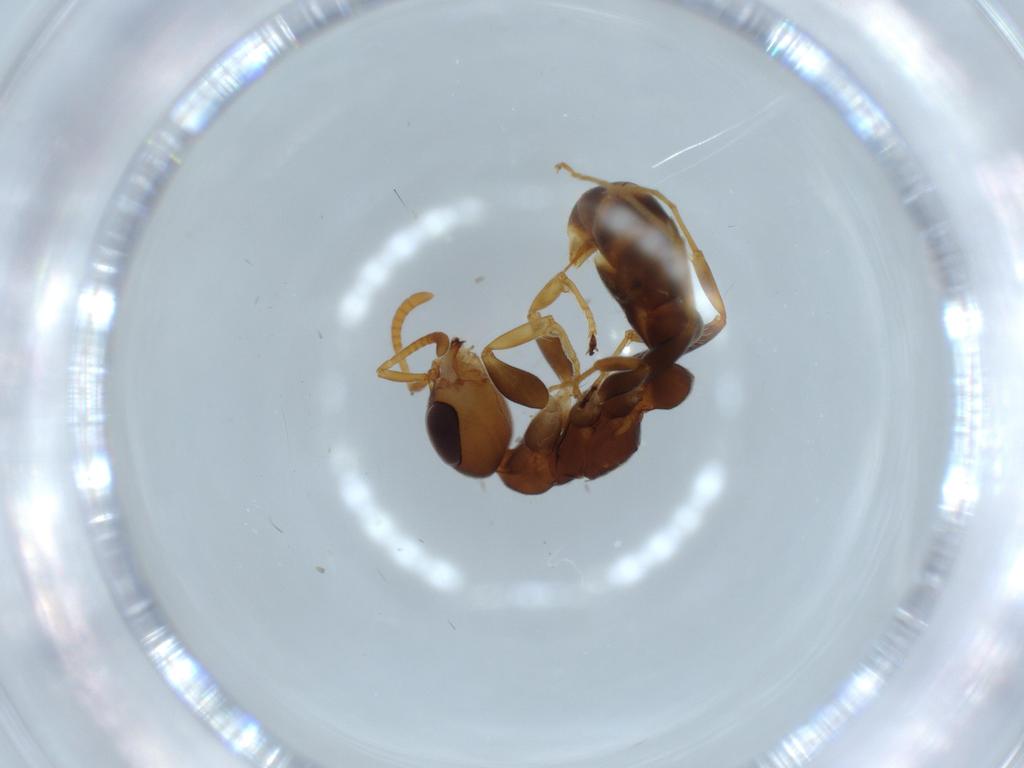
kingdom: Animalia
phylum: Arthropoda
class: Insecta
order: Hymenoptera
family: Formicidae
